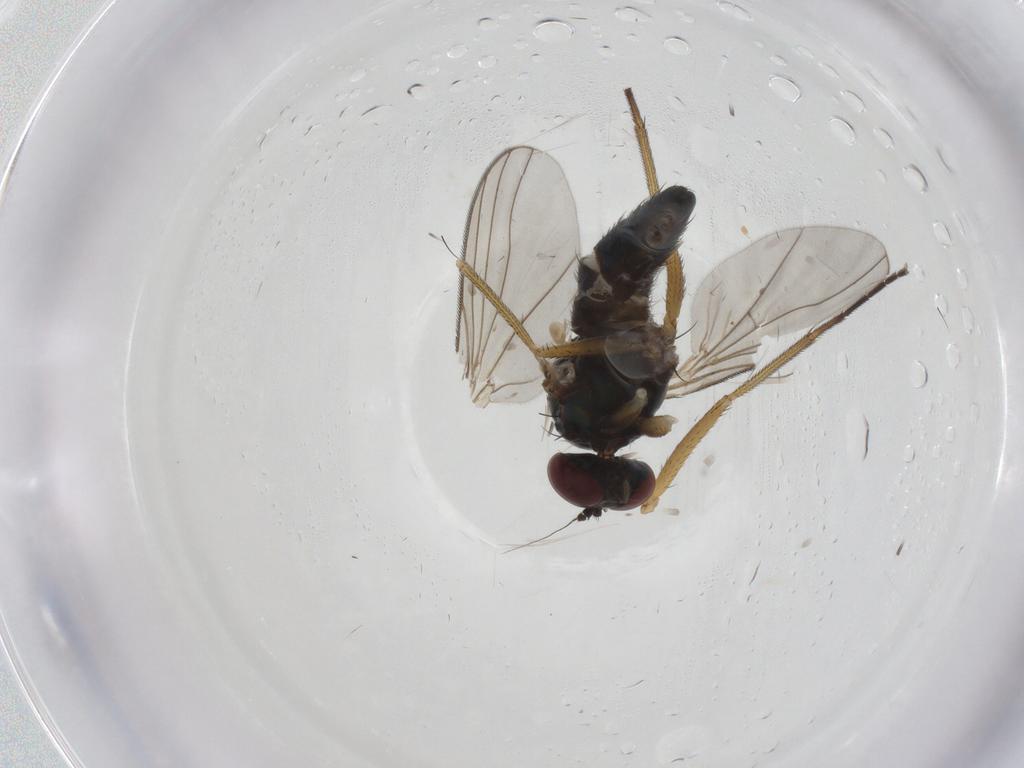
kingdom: Animalia
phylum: Arthropoda
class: Insecta
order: Diptera
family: Dolichopodidae
